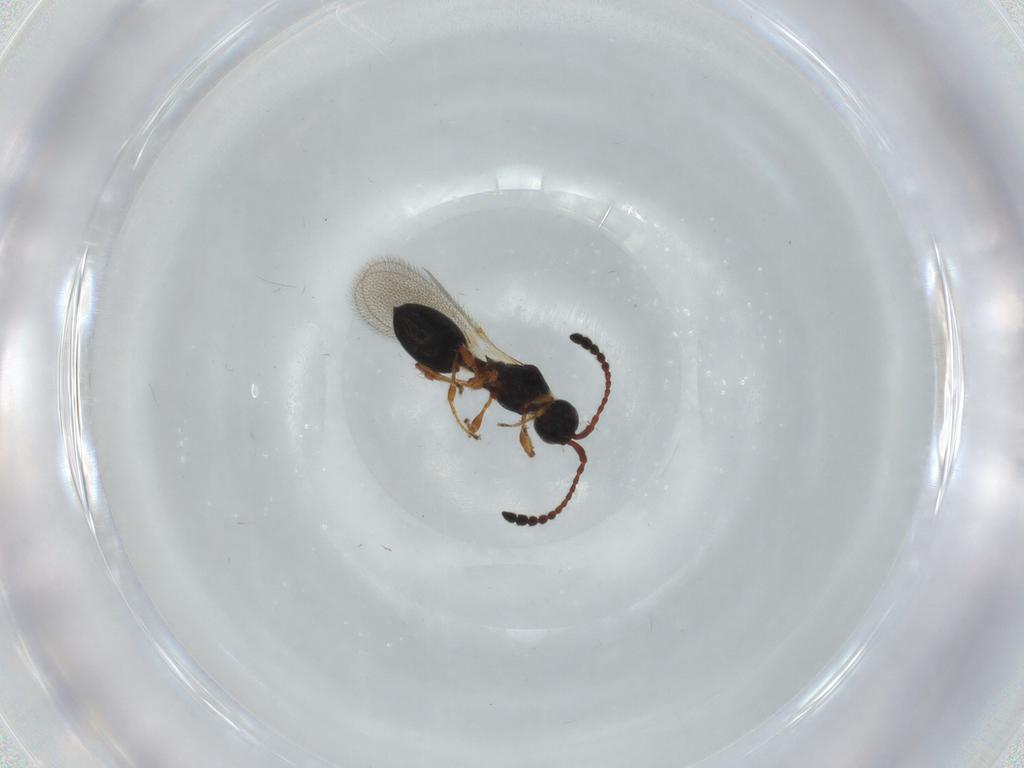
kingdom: Animalia
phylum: Arthropoda
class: Insecta
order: Hymenoptera
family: Diapriidae
